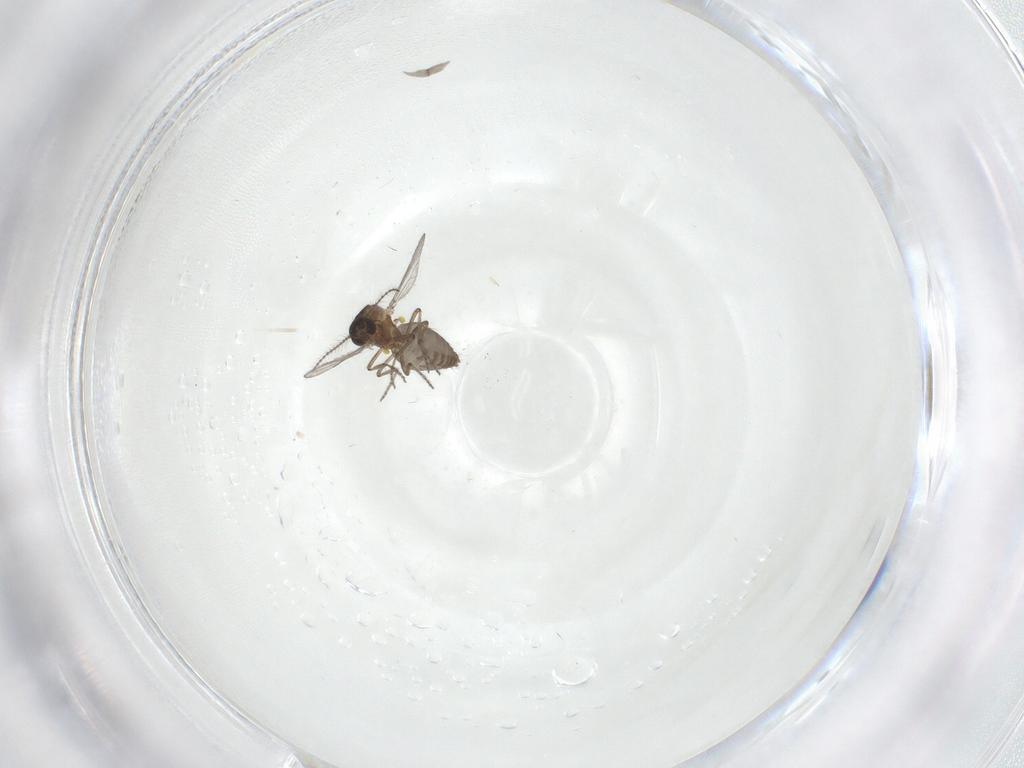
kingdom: Animalia
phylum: Arthropoda
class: Insecta
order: Diptera
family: Ceratopogonidae
